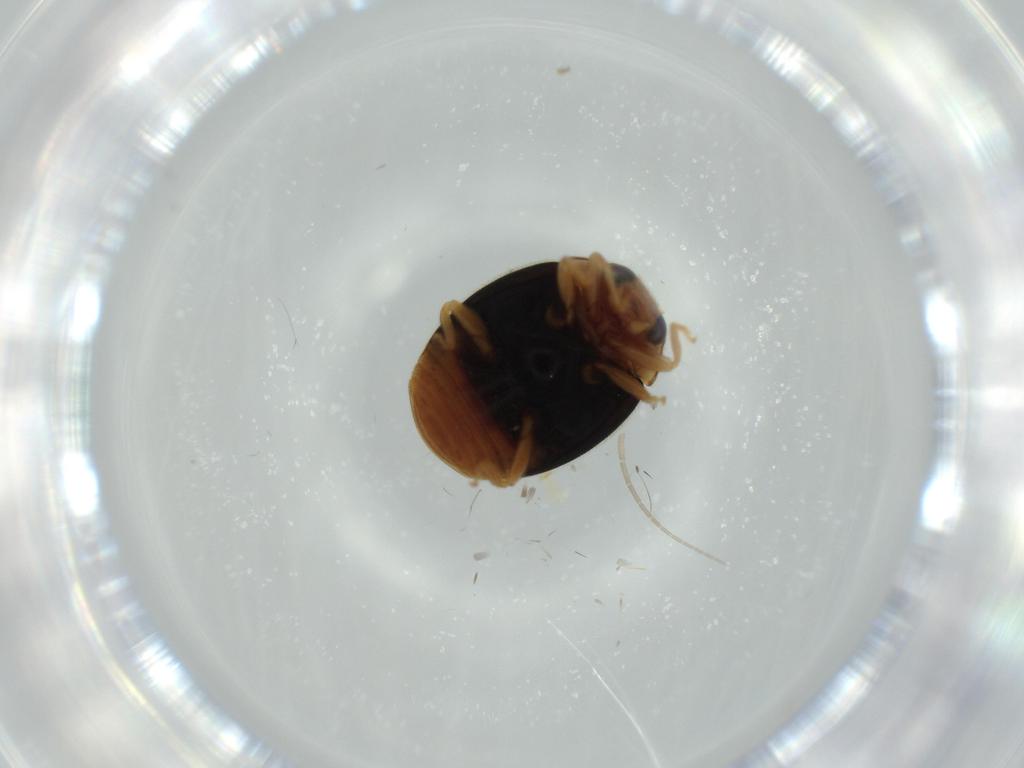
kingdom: Animalia
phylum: Arthropoda
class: Insecta
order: Coleoptera
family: Coccinellidae
